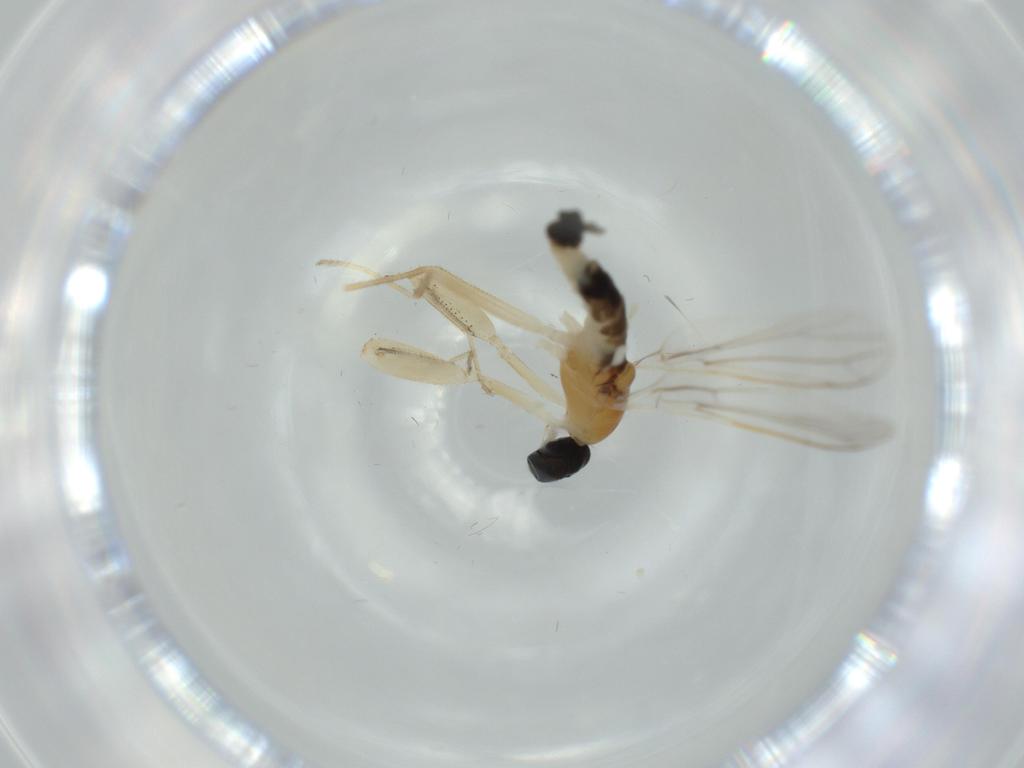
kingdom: Animalia
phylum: Arthropoda
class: Insecta
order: Diptera
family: Empididae
